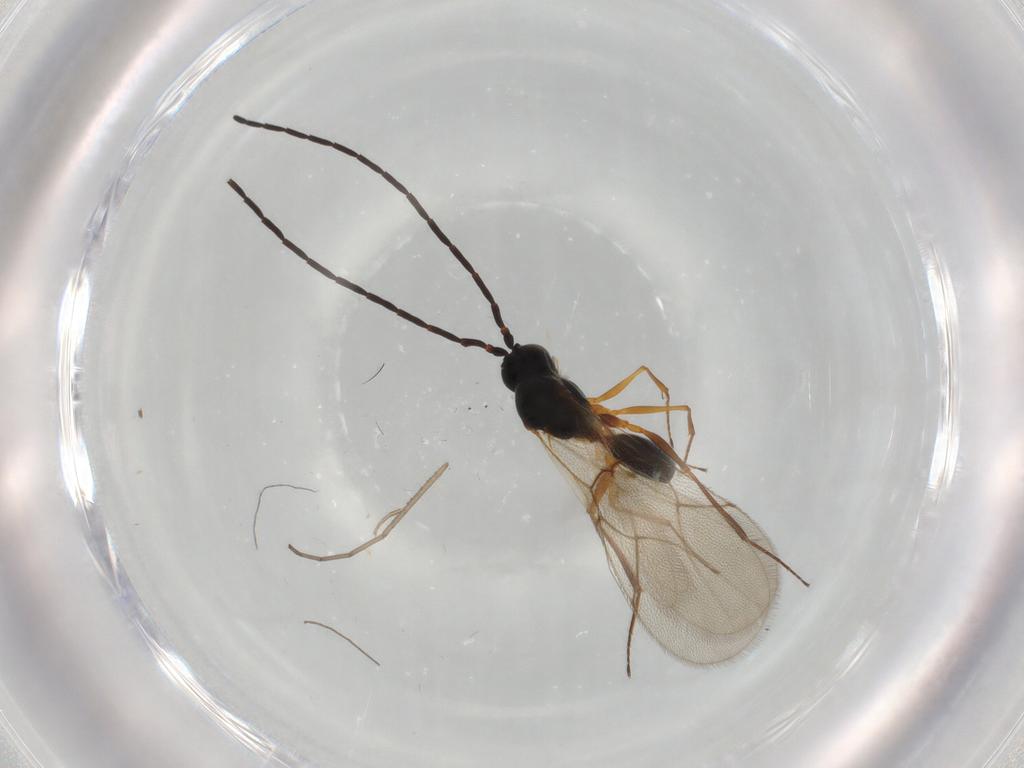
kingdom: Animalia
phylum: Arthropoda
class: Insecta
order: Hymenoptera
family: Figitidae
